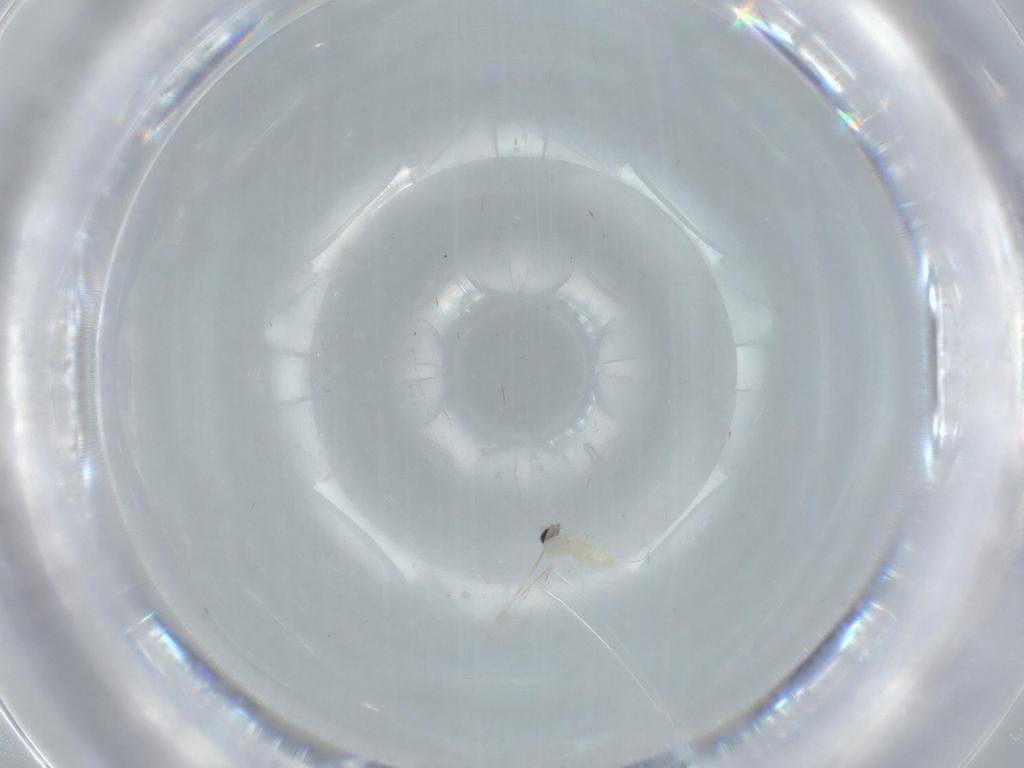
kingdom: Animalia
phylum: Arthropoda
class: Insecta
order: Diptera
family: Cecidomyiidae
